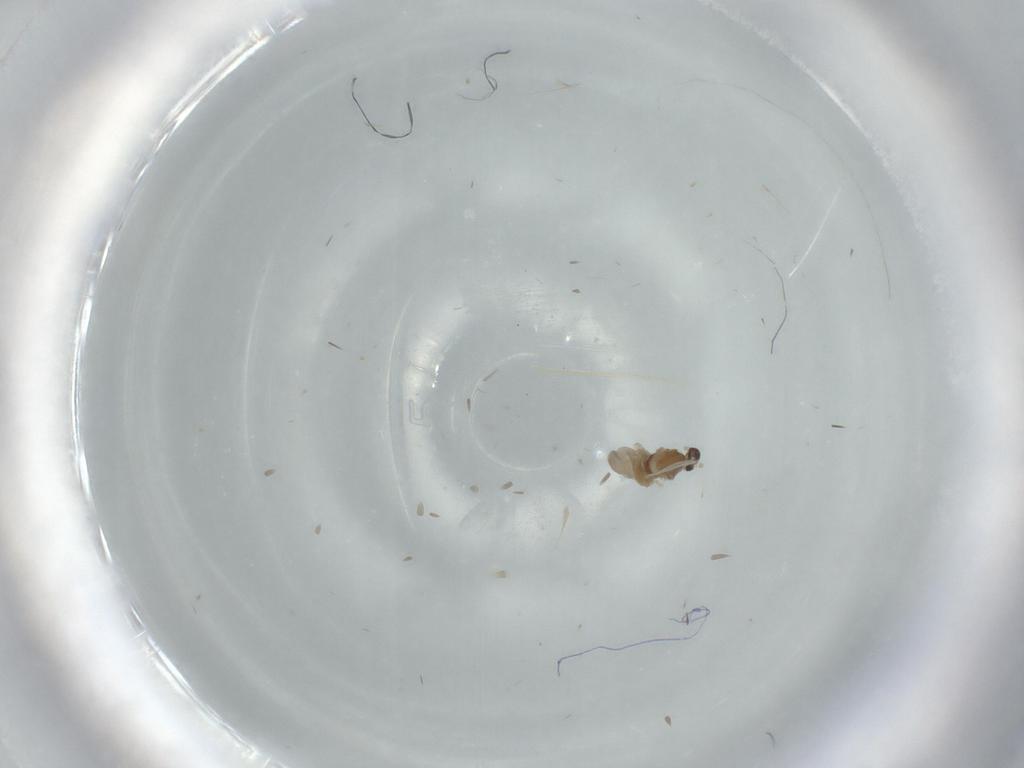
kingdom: Animalia
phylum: Arthropoda
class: Insecta
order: Diptera
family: Cecidomyiidae
